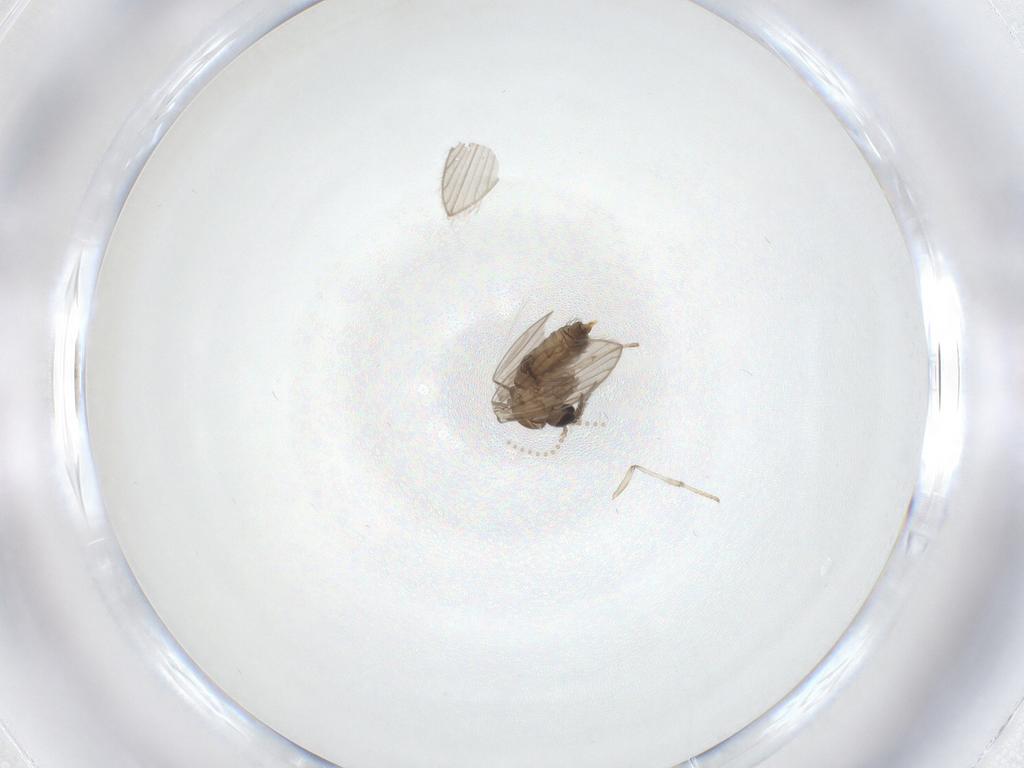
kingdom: Animalia
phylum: Arthropoda
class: Insecta
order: Diptera
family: Psychodidae
